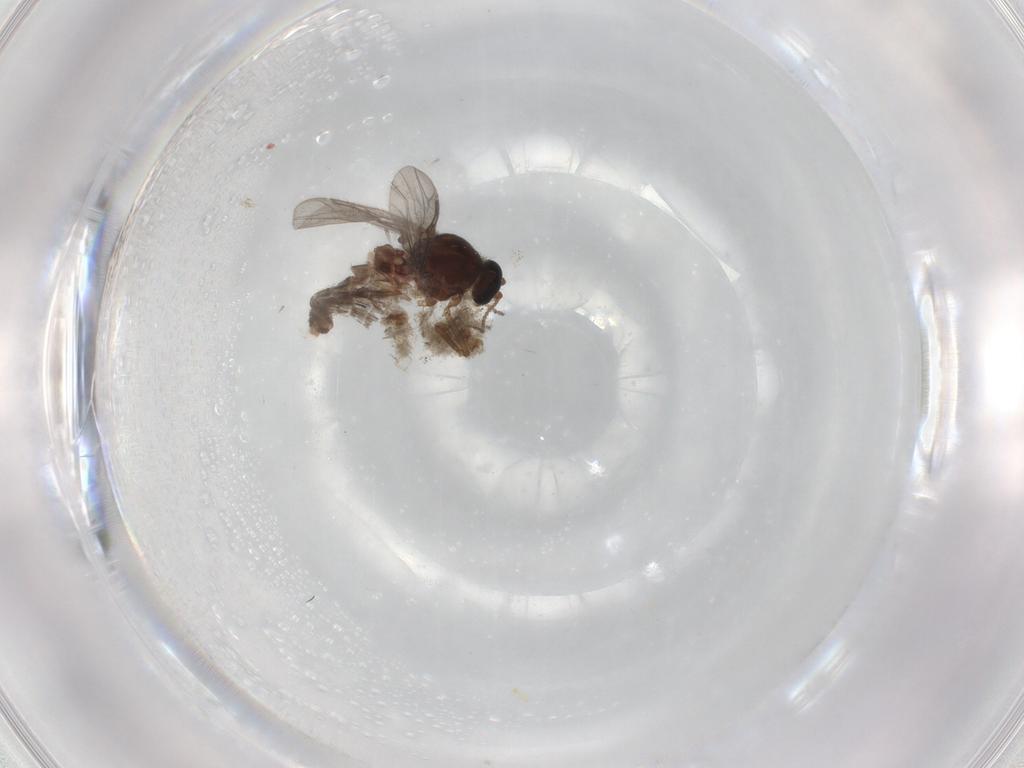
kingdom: Animalia
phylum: Arthropoda
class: Insecta
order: Diptera
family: Ceratopogonidae
